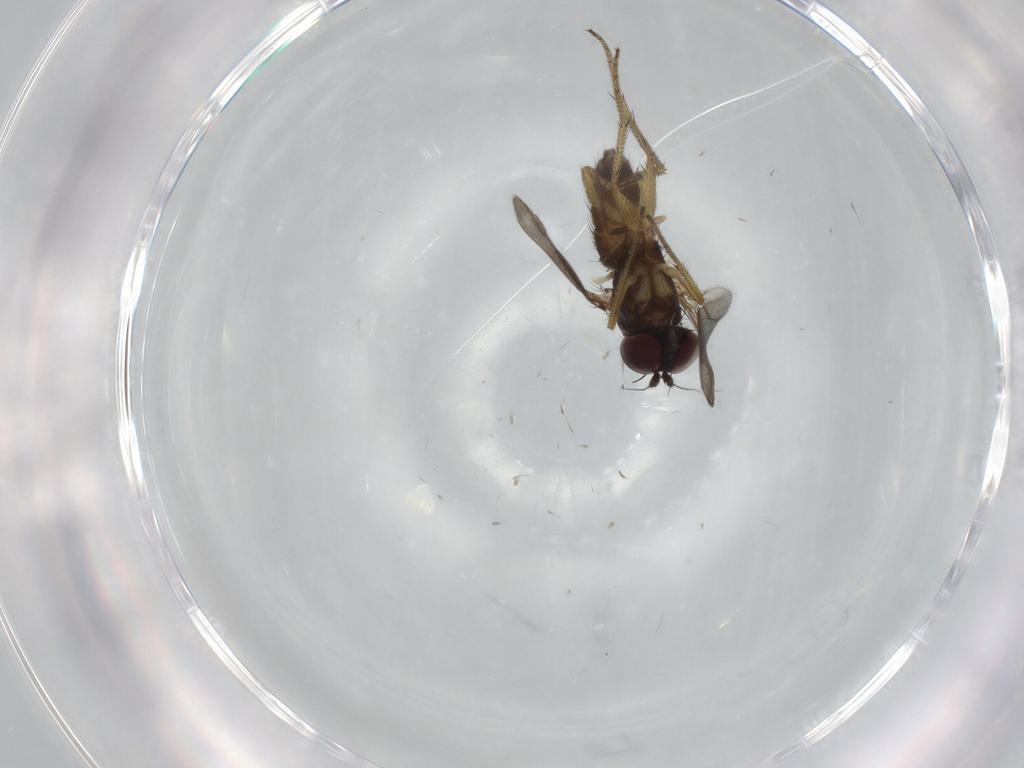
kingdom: Animalia
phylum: Arthropoda
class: Insecta
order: Diptera
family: Dolichopodidae
